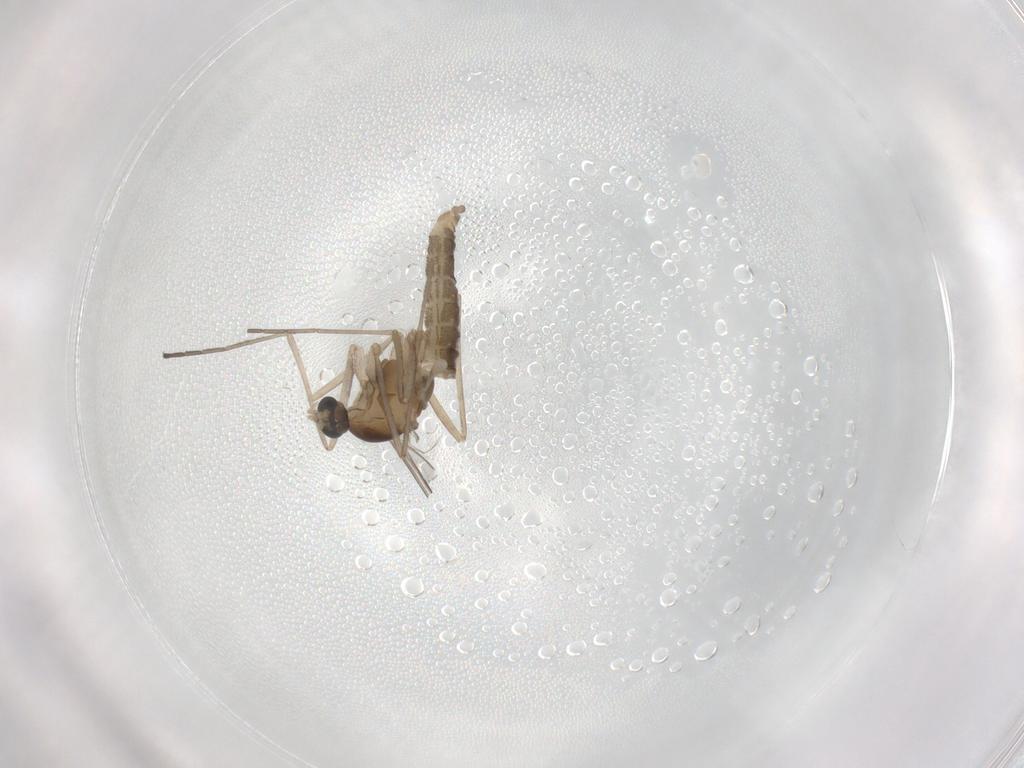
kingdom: Animalia
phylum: Arthropoda
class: Insecta
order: Diptera
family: Cecidomyiidae
